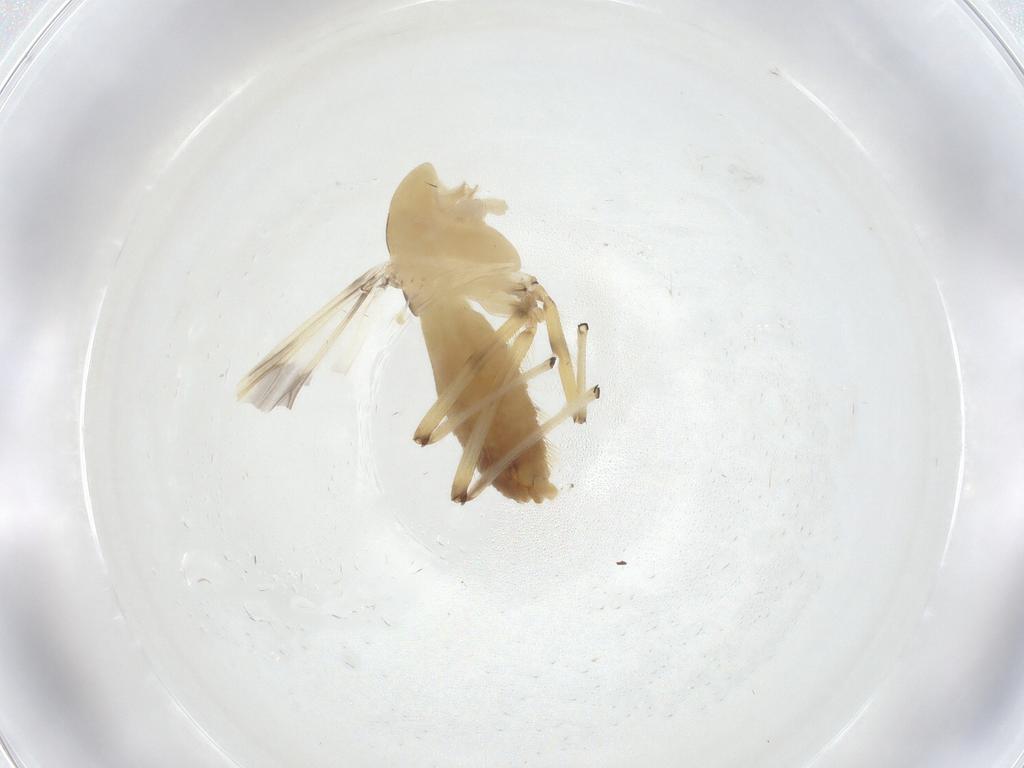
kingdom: Animalia
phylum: Arthropoda
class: Insecta
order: Diptera
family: Chironomidae
